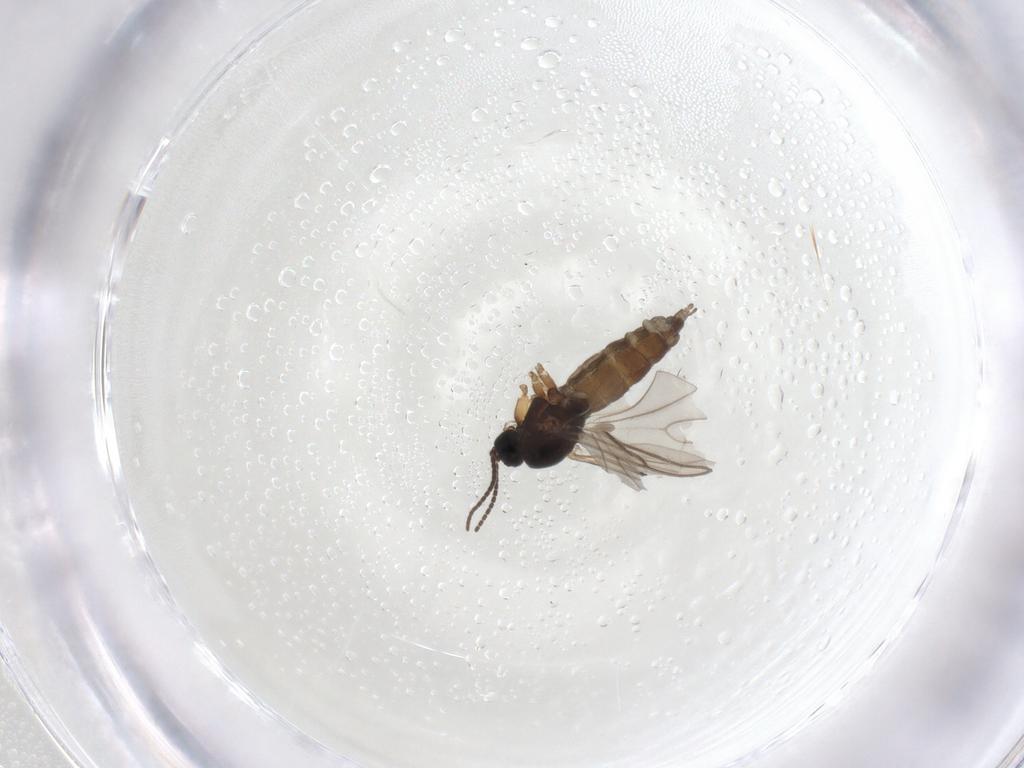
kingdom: Animalia
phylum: Arthropoda
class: Insecta
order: Diptera
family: Sciaridae
